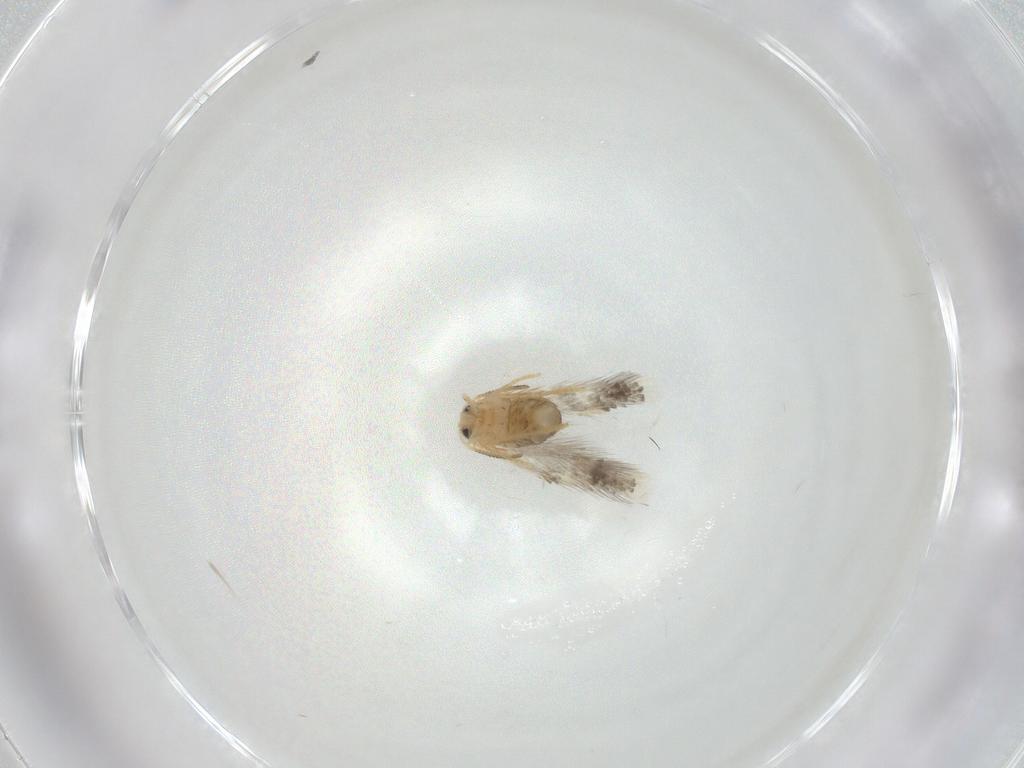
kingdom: Animalia
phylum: Arthropoda
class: Insecta
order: Lepidoptera
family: Nepticulidae
